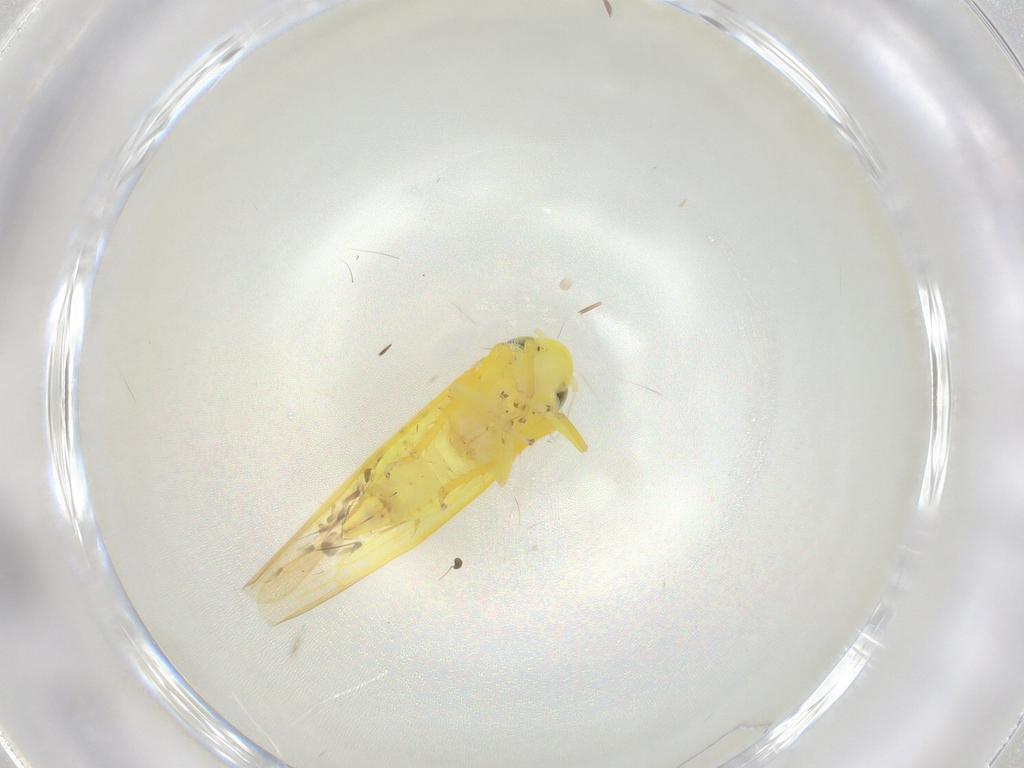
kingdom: Animalia
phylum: Arthropoda
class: Insecta
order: Hemiptera
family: Cicadellidae
